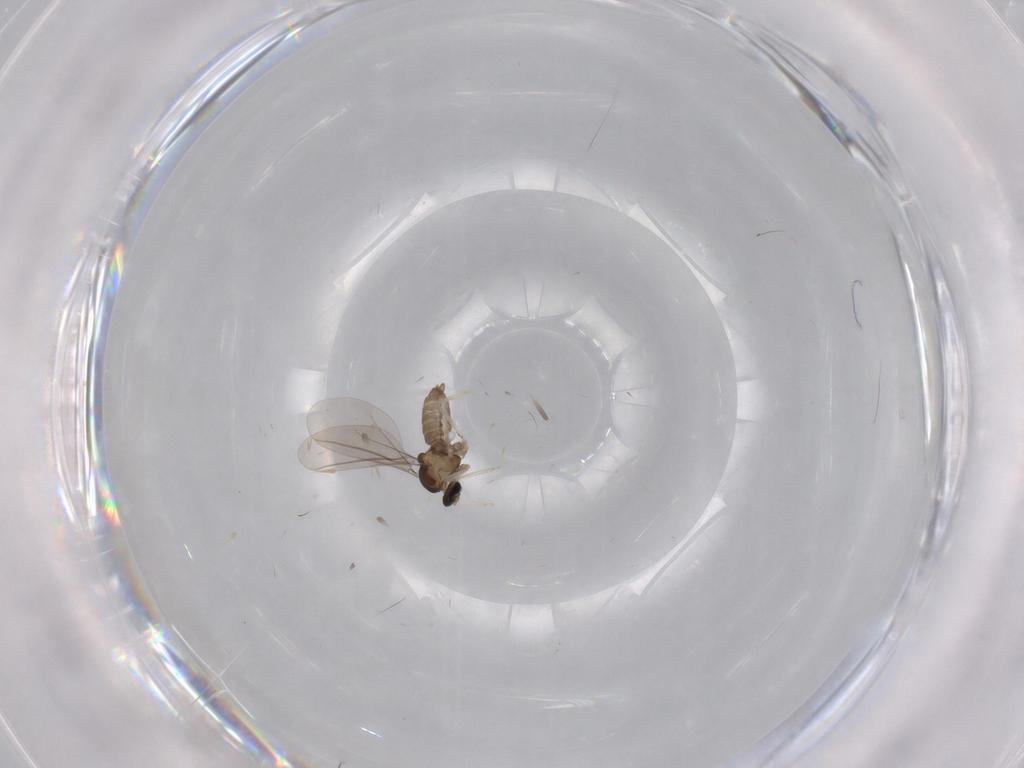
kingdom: Animalia
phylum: Arthropoda
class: Insecta
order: Diptera
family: Cecidomyiidae
